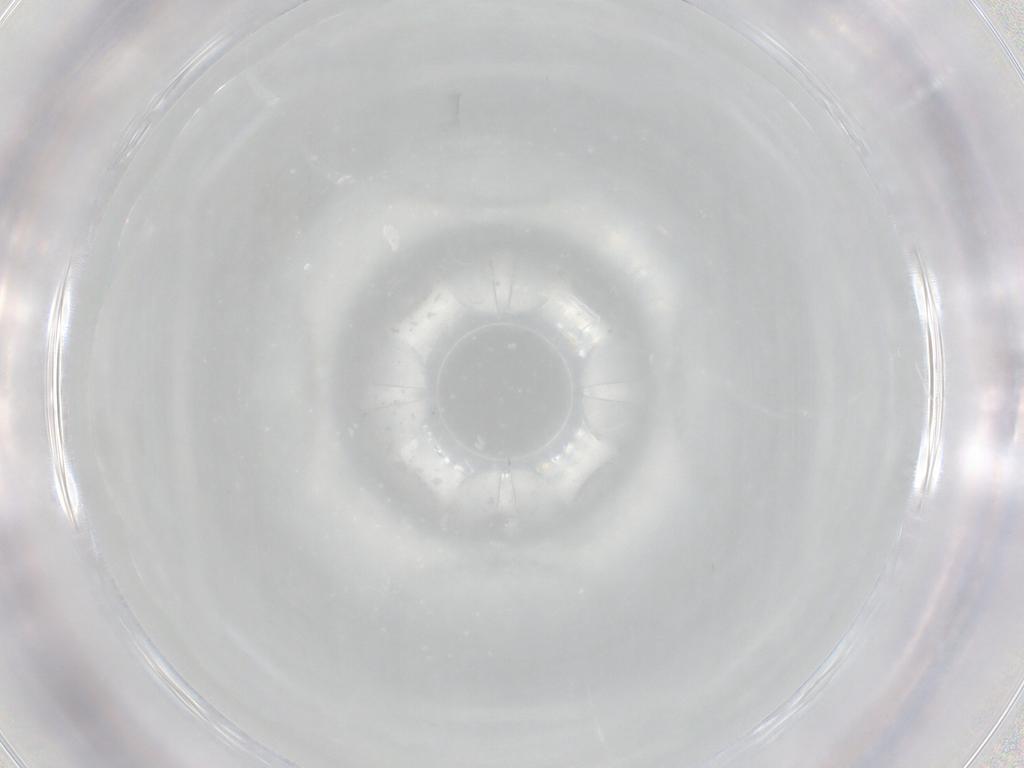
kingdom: Animalia
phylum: Arthropoda
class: Insecta
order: Diptera
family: Cecidomyiidae
